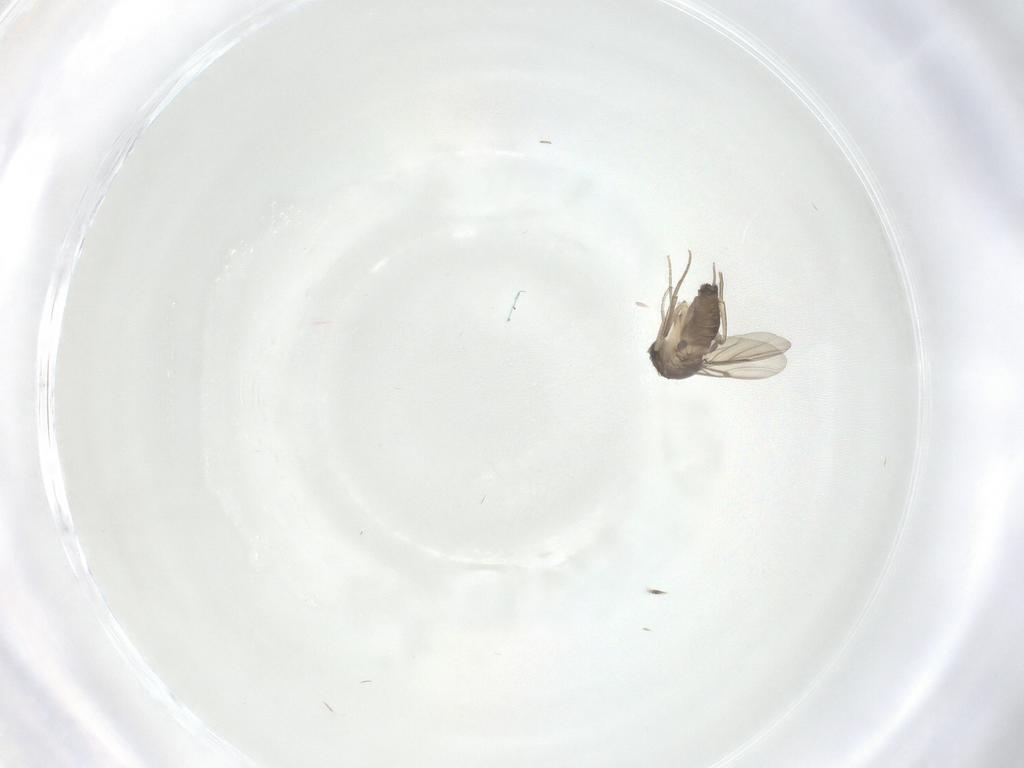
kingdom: Animalia
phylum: Arthropoda
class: Insecta
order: Diptera
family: Phoridae
